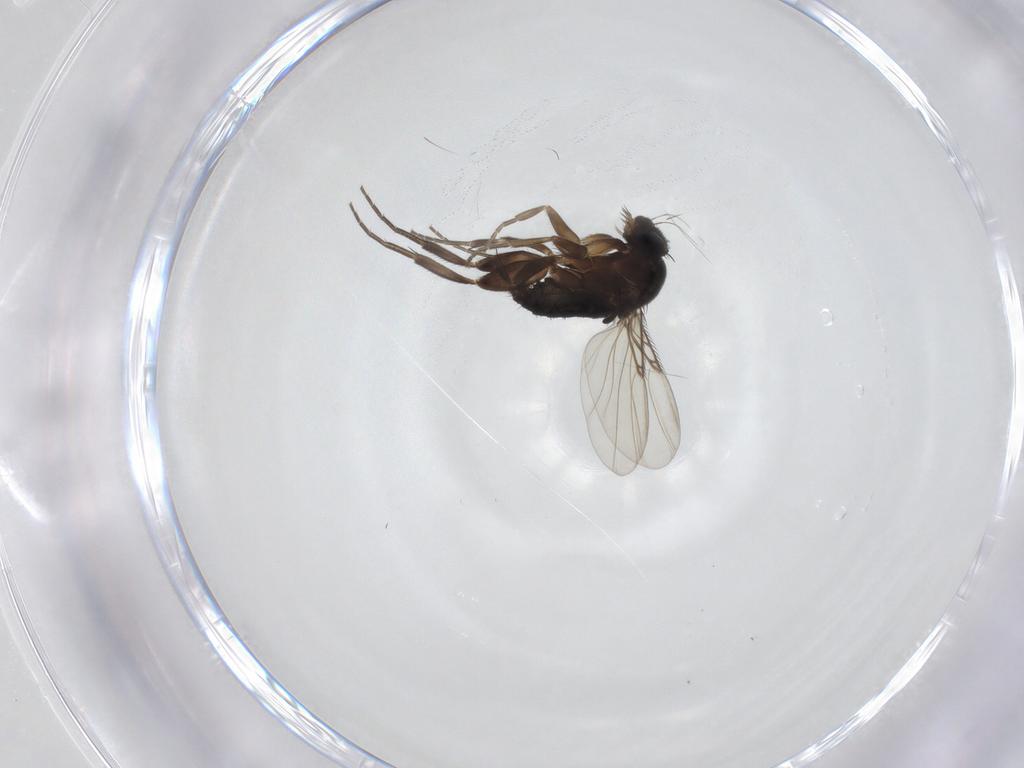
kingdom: Animalia
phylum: Arthropoda
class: Insecta
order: Diptera
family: Phoridae
